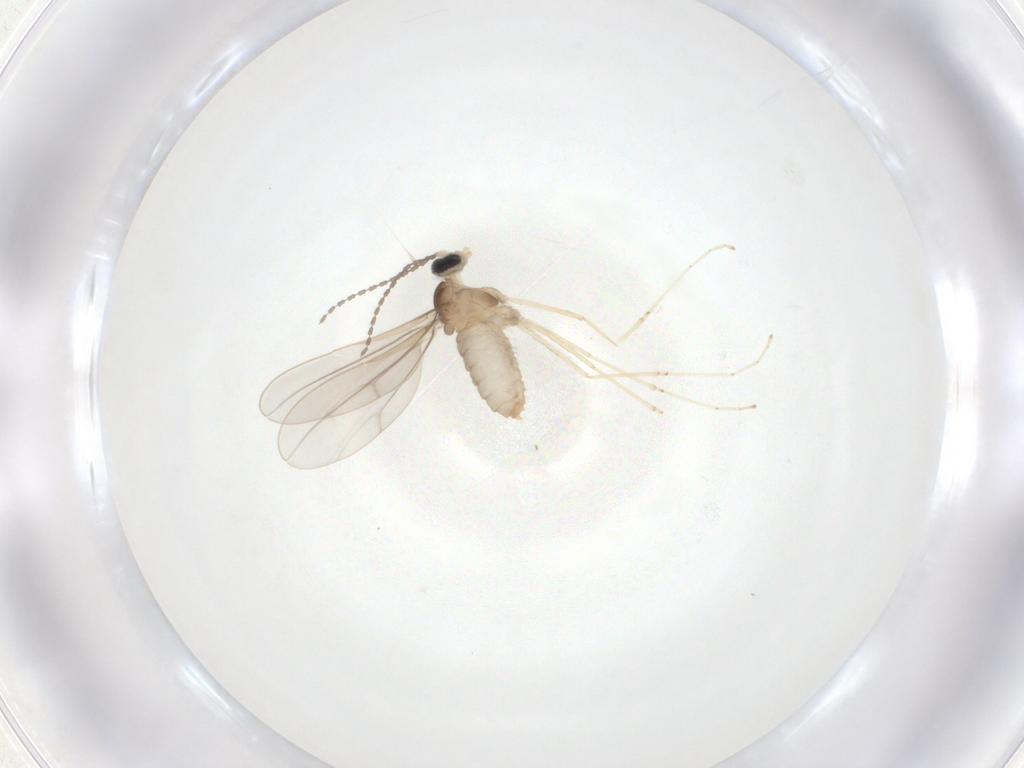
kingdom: Animalia
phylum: Arthropoda
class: Insecta
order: Diptera
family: Cecidomyiidae
